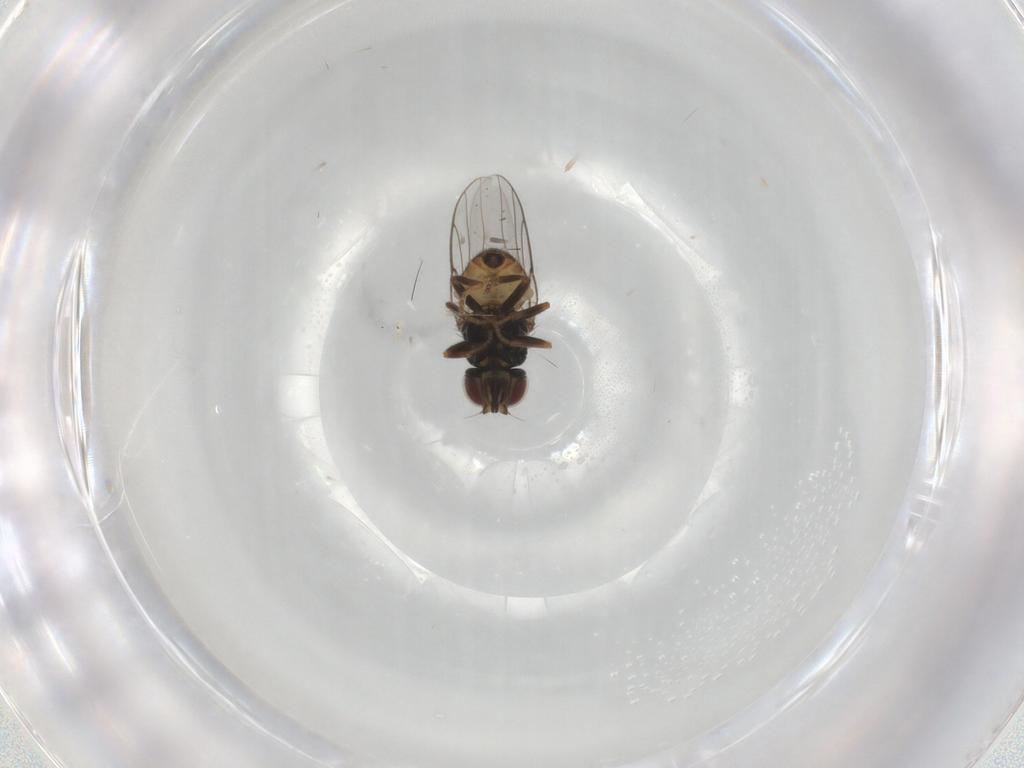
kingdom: Animalia
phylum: Arthropoda
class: Insecta
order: Diptera
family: Chloropidae
